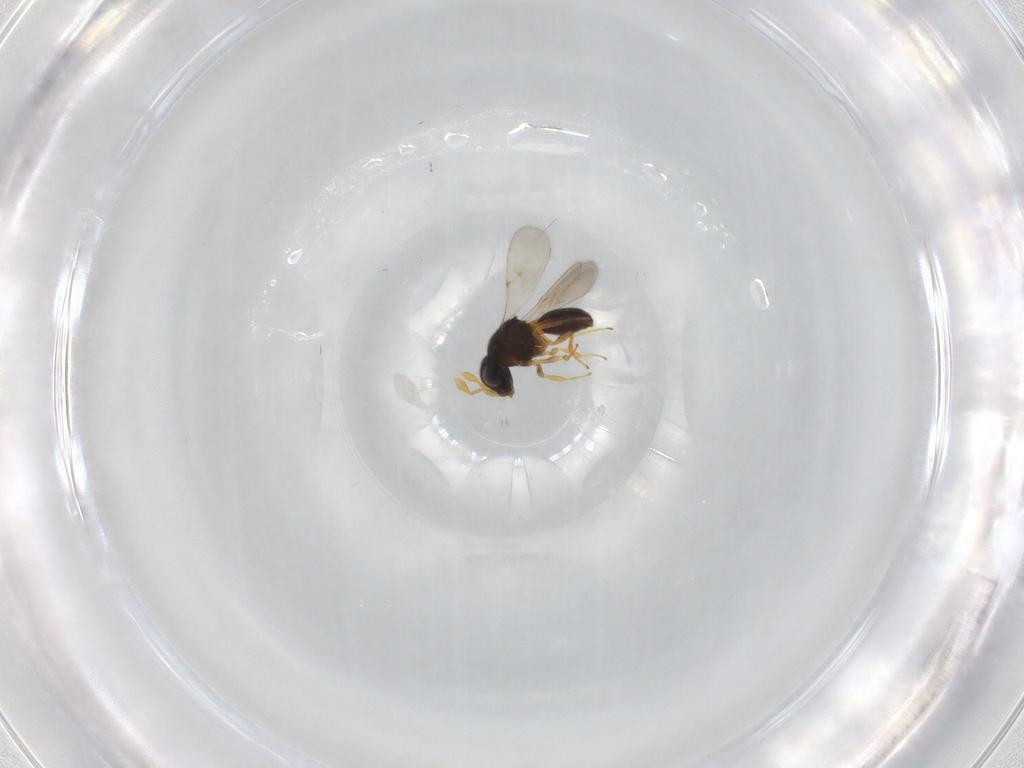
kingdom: Animalia
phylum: Arthropoda
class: Insecta
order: Hymenoptera
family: Scelionidae
